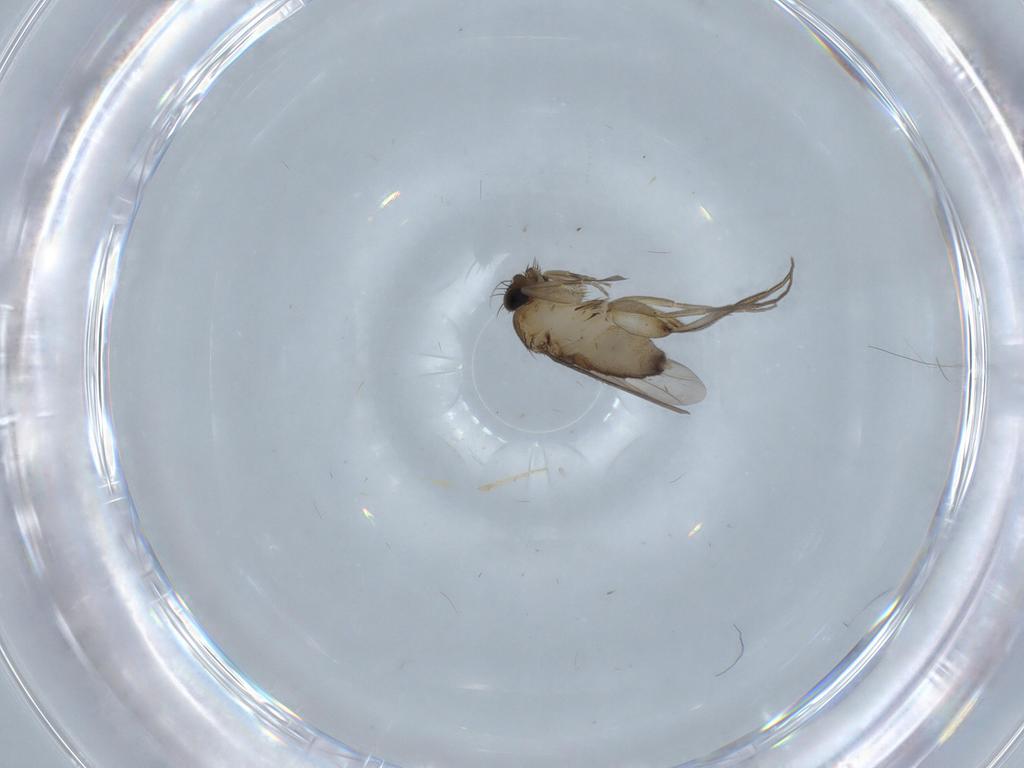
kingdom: Animalia
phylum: Arthropoda
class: Insecta
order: Diptera
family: Phoridae
